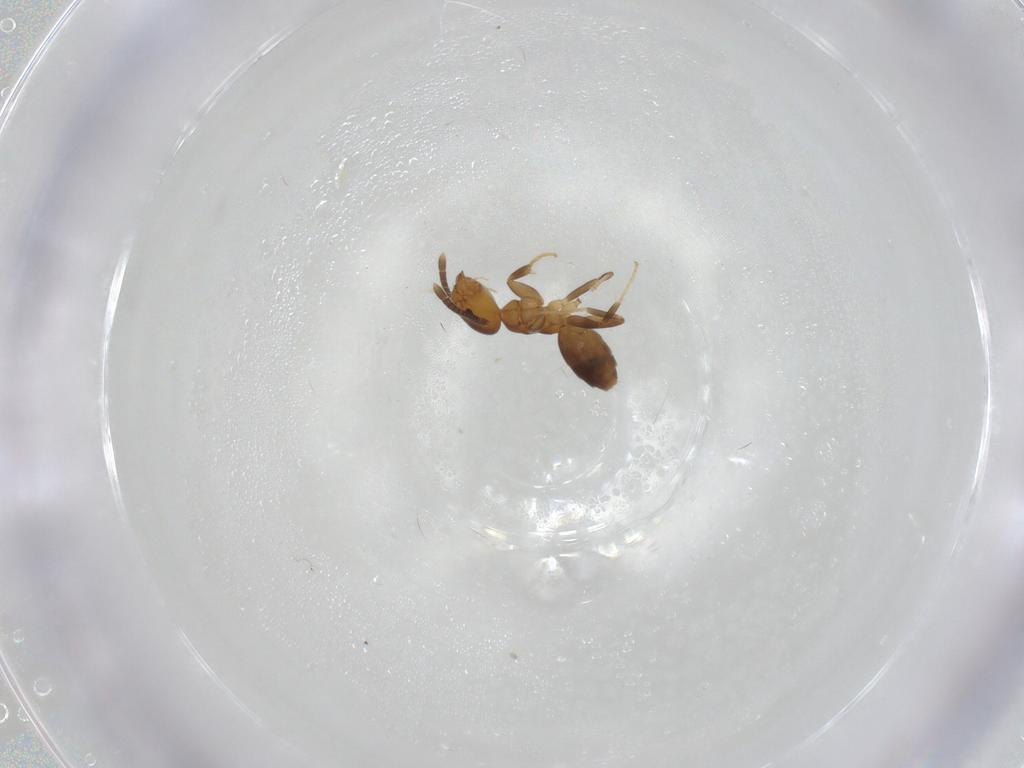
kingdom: Animalia
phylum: Arthropoda
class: Insecta
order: Hymenoptera
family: Formicidae
